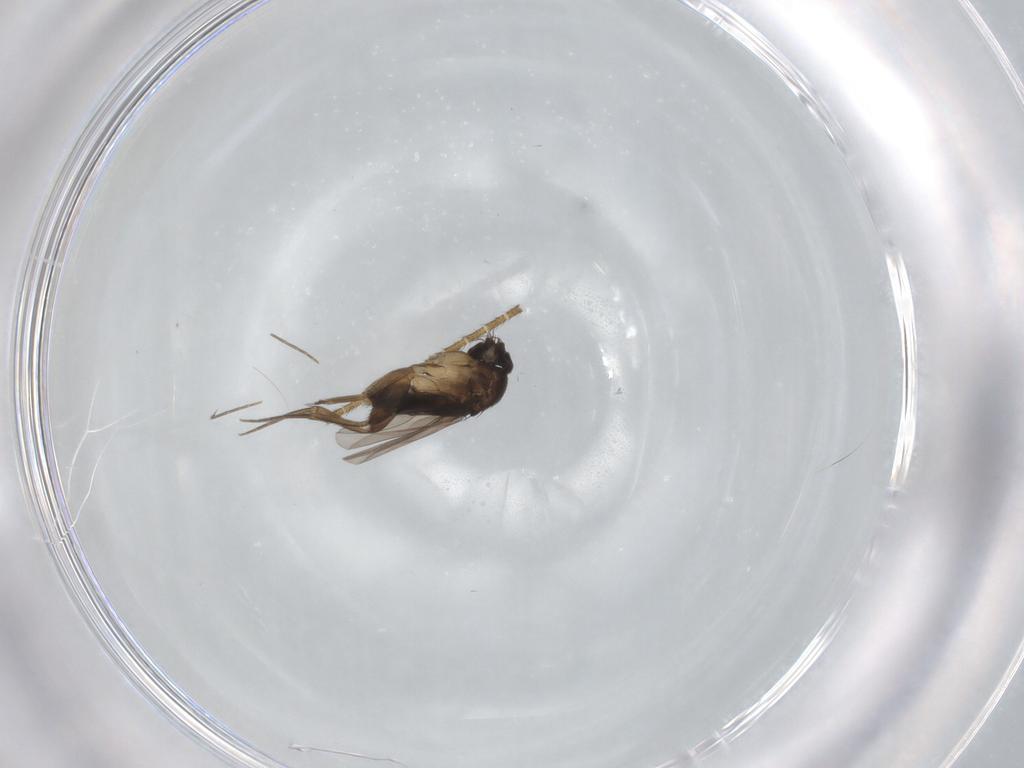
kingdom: Animalia
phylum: Arthropoda
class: Insecta
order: Diptera
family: Phoridae
